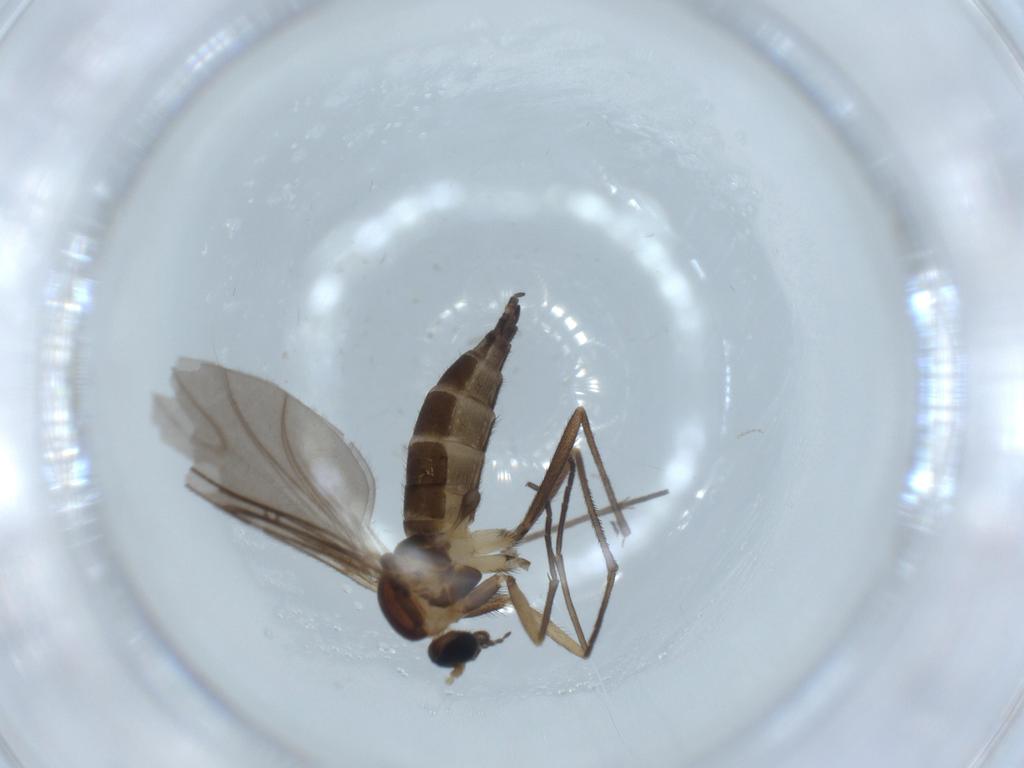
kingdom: Animalia
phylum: Arthropoda
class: Insecta
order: Diptera
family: Sciaridae
